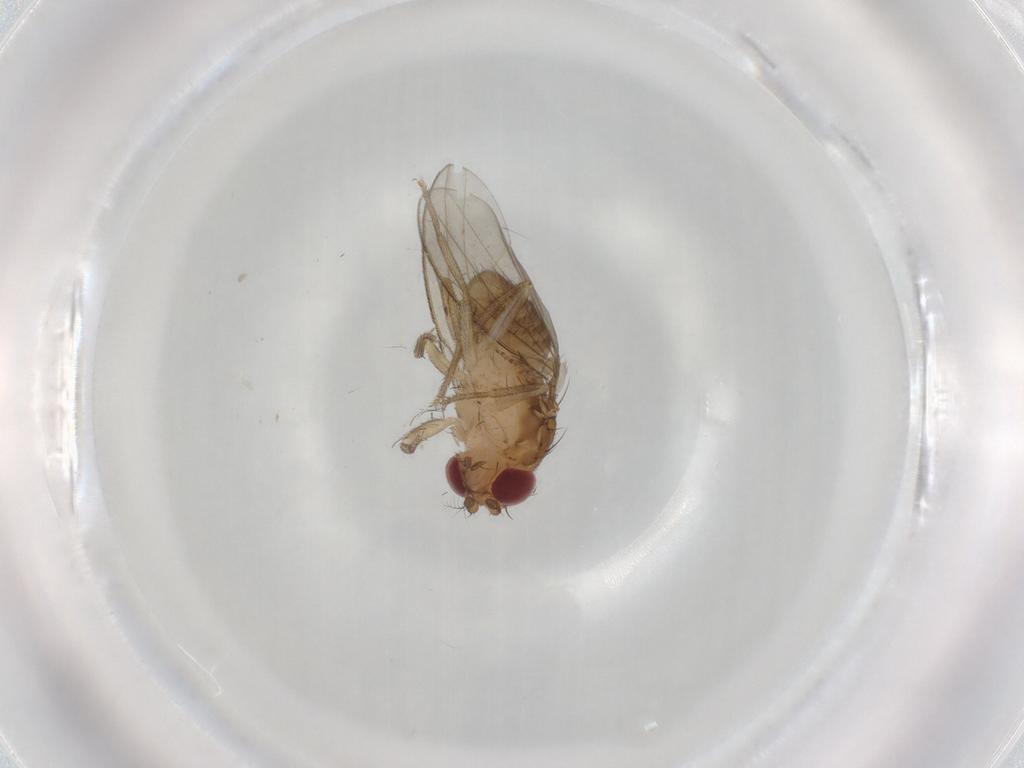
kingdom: Animalia
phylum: Arthropoda
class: Insecta
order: Diptera
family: Drosophilidae
